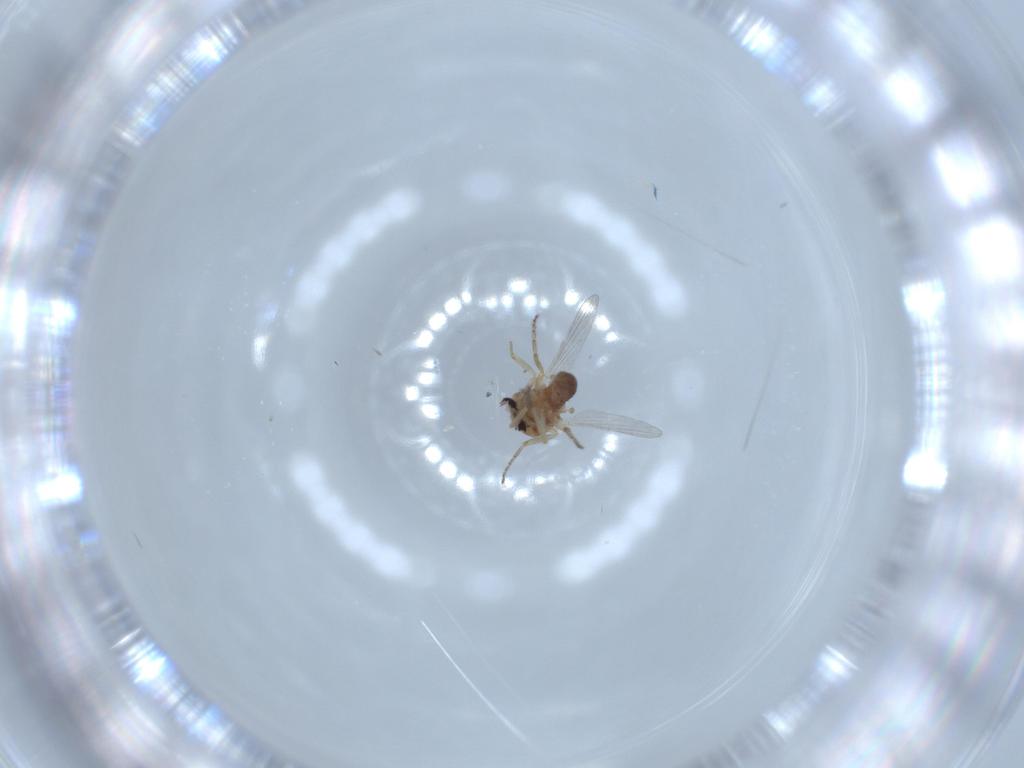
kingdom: Animalia
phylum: Arthropoda
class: Insecta
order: Diptera
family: Ceratopogonidae
